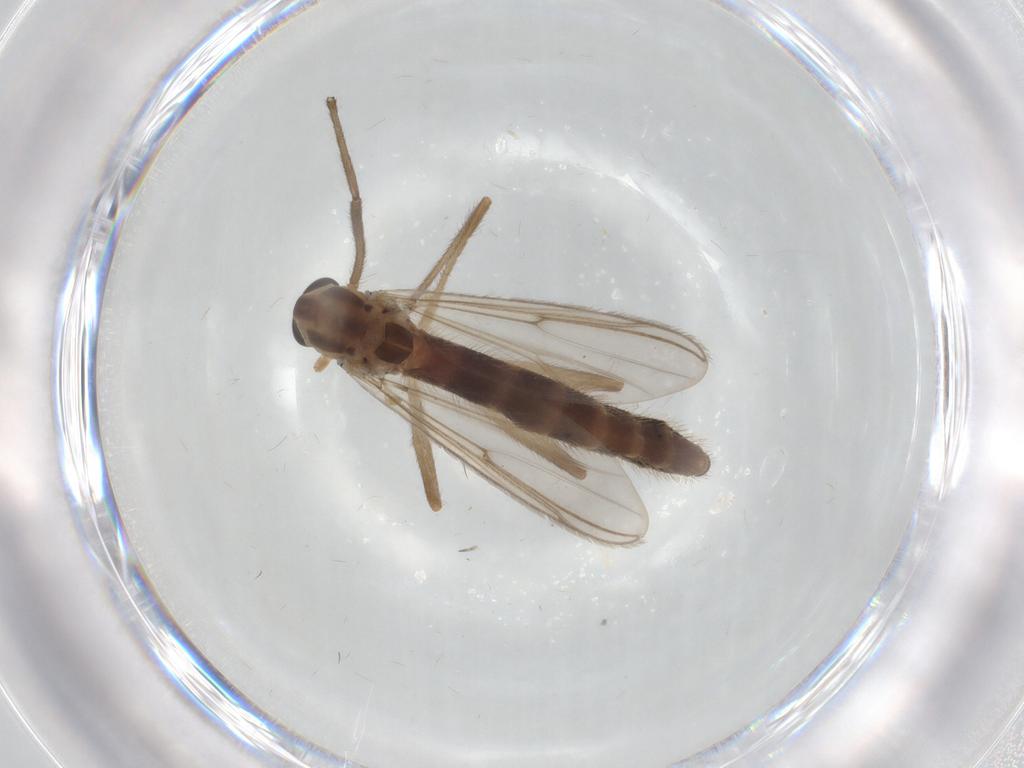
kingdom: Animalia
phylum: Arthropoda
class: Insecta
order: Diptera
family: Chironomidae
